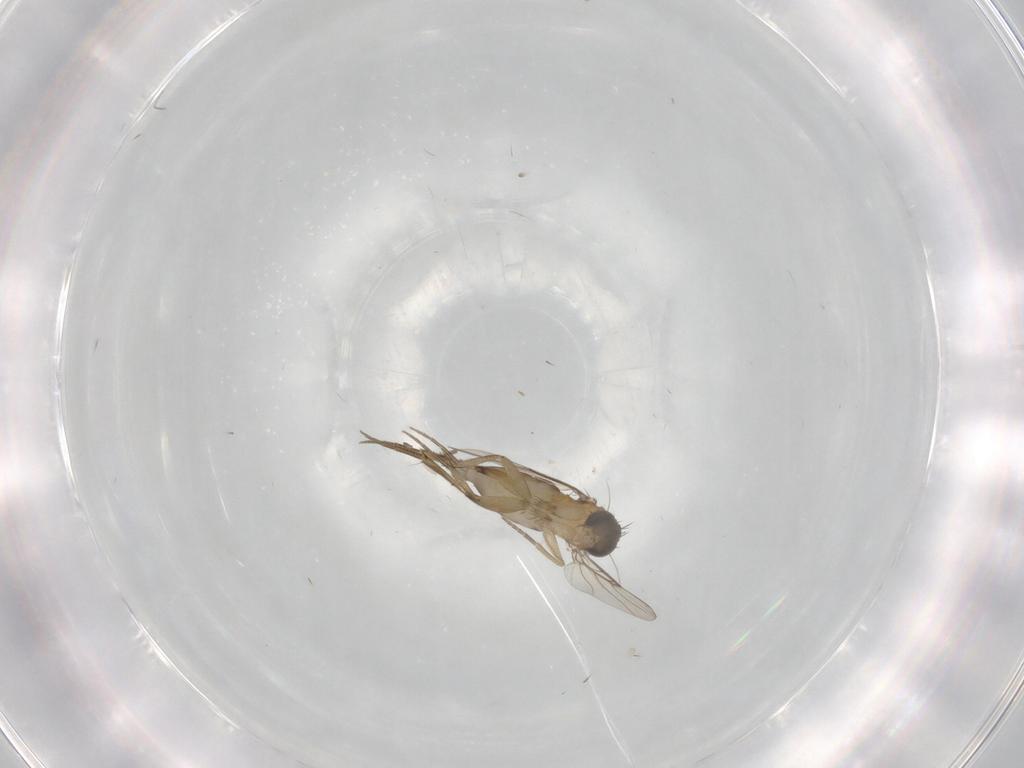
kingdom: Animalia
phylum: Arthropoda
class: Insecta
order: Diptera
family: Phoridae
